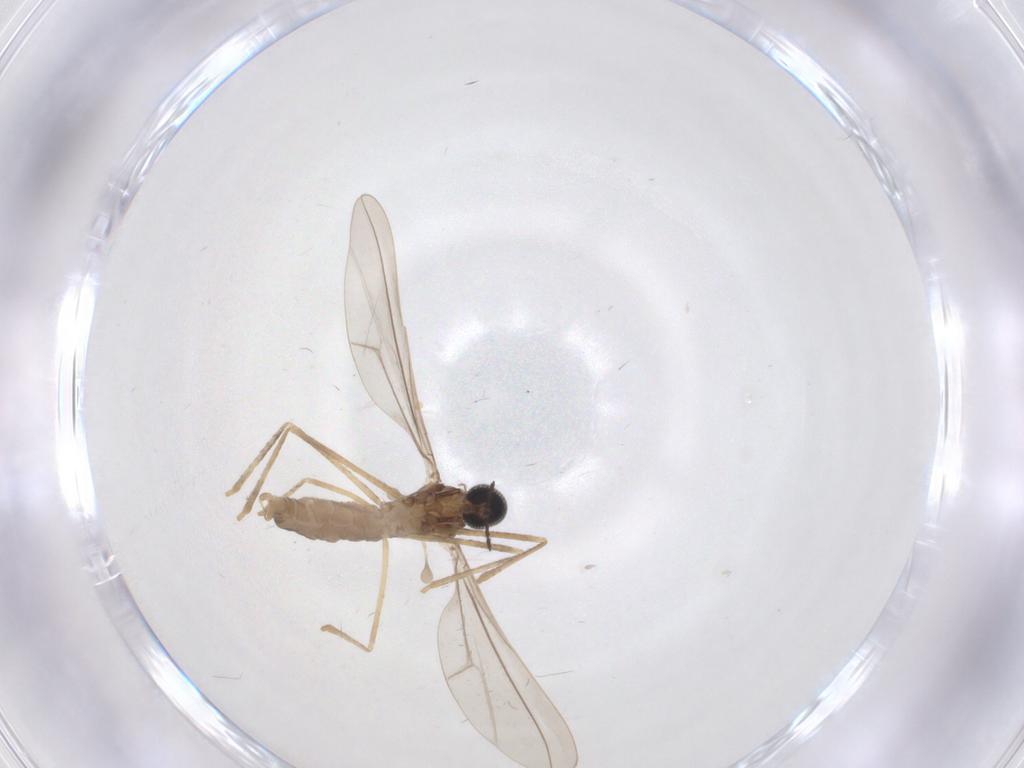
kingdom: Animalia
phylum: Arthropoda
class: Insecta
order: Diptera
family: Cecidomyiidae
